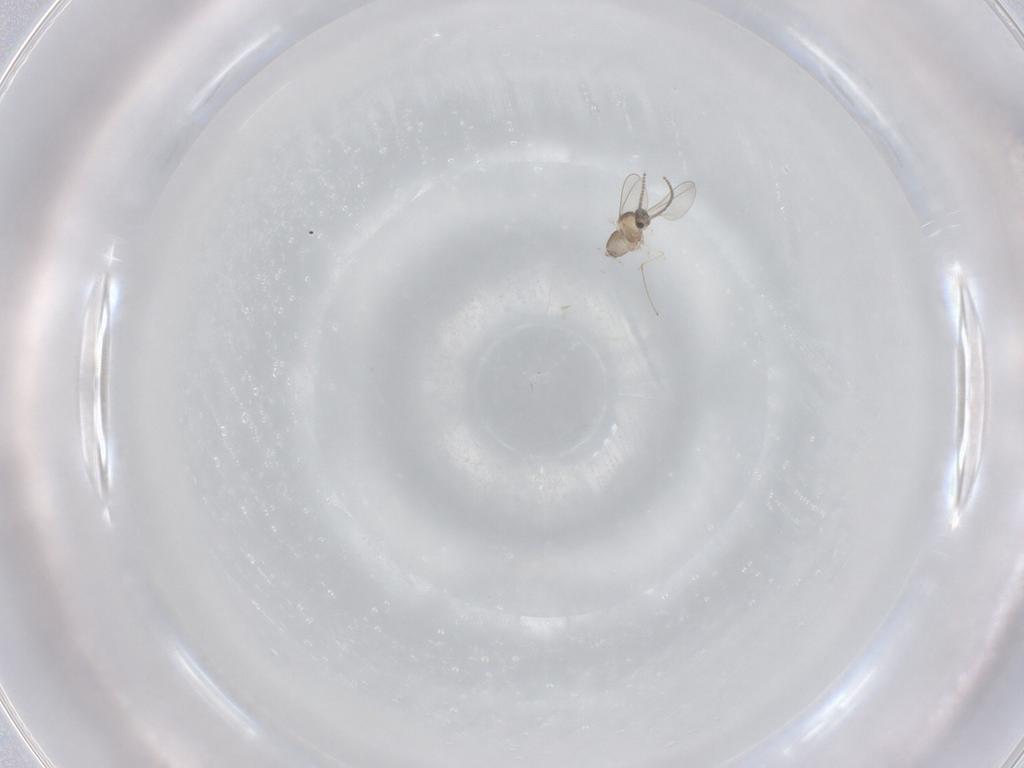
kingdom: Animalia
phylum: Arthropoda
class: Insecta
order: Diptera
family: Cecidomyiidae
